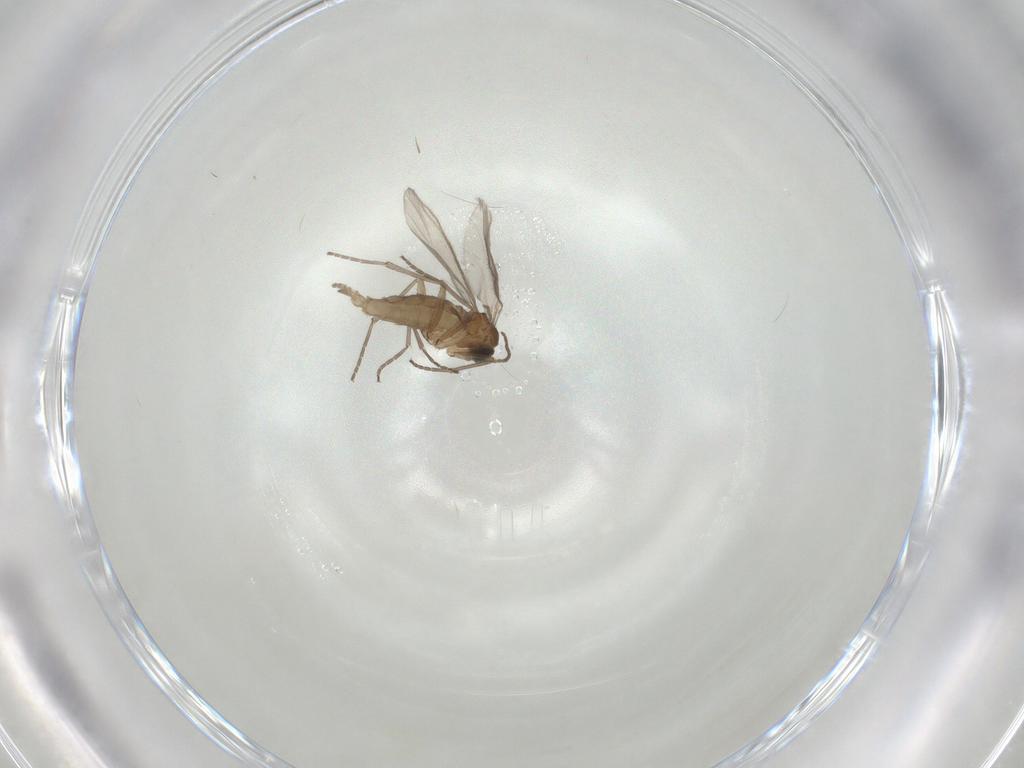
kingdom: Animalia
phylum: Arthropoda
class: Insecta
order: Diptera
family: Sciaridae
